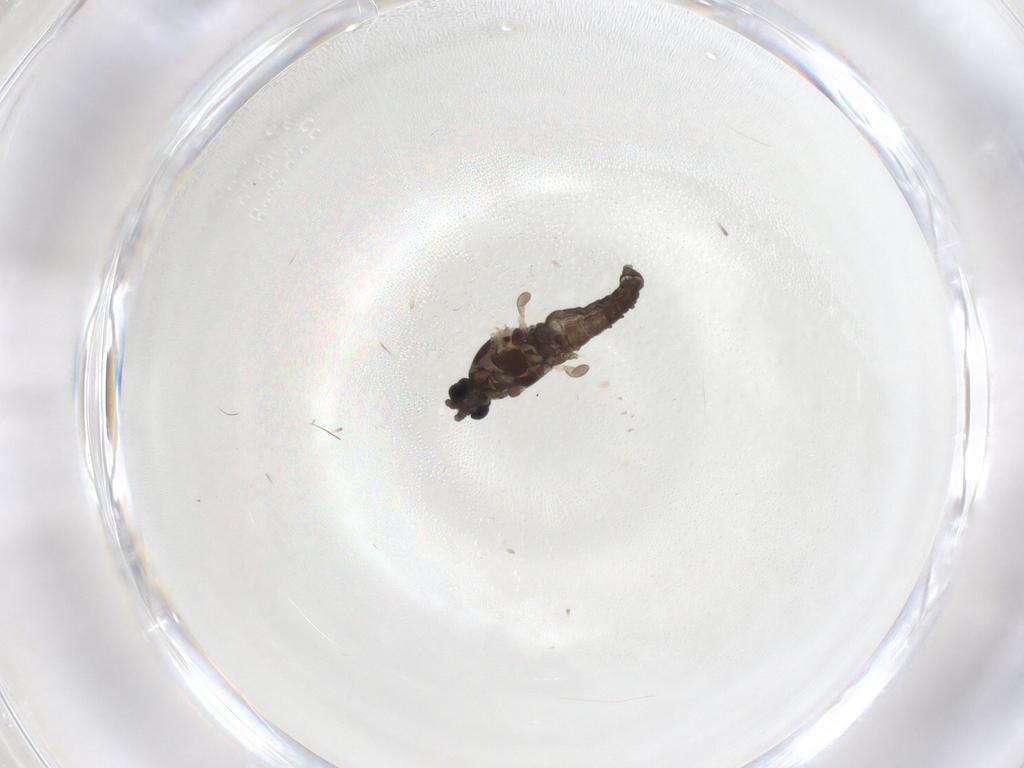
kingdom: Animalia
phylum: Arthropoda
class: Insecta
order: Diptera
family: Cecidomyiidae
